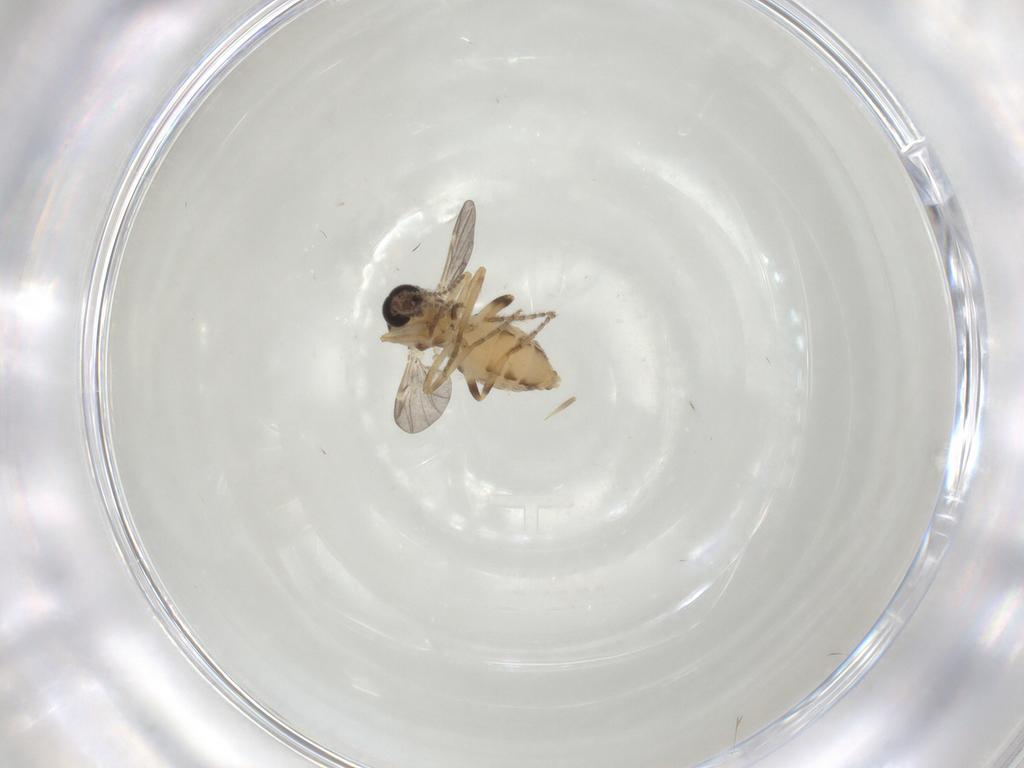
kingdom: Animalia
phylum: Arthropoda
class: Insecta
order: Diptera
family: Ceratopogonidae
